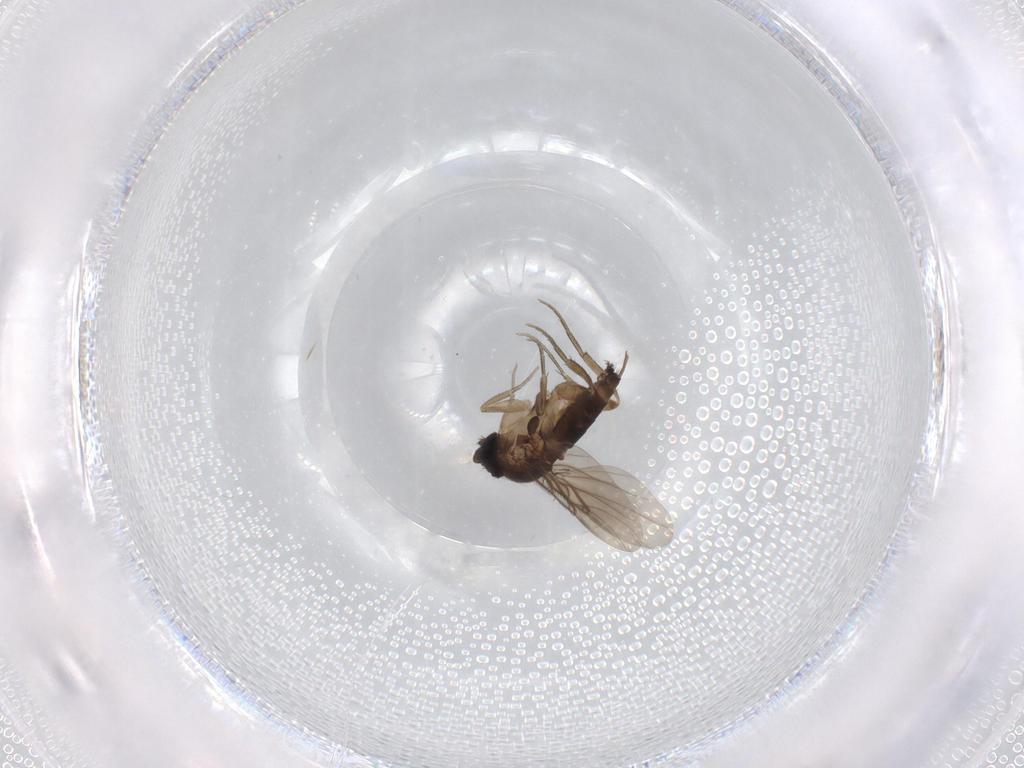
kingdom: Animalia
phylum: Arthropoda
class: Insecta
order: Diptera
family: Phoridae
